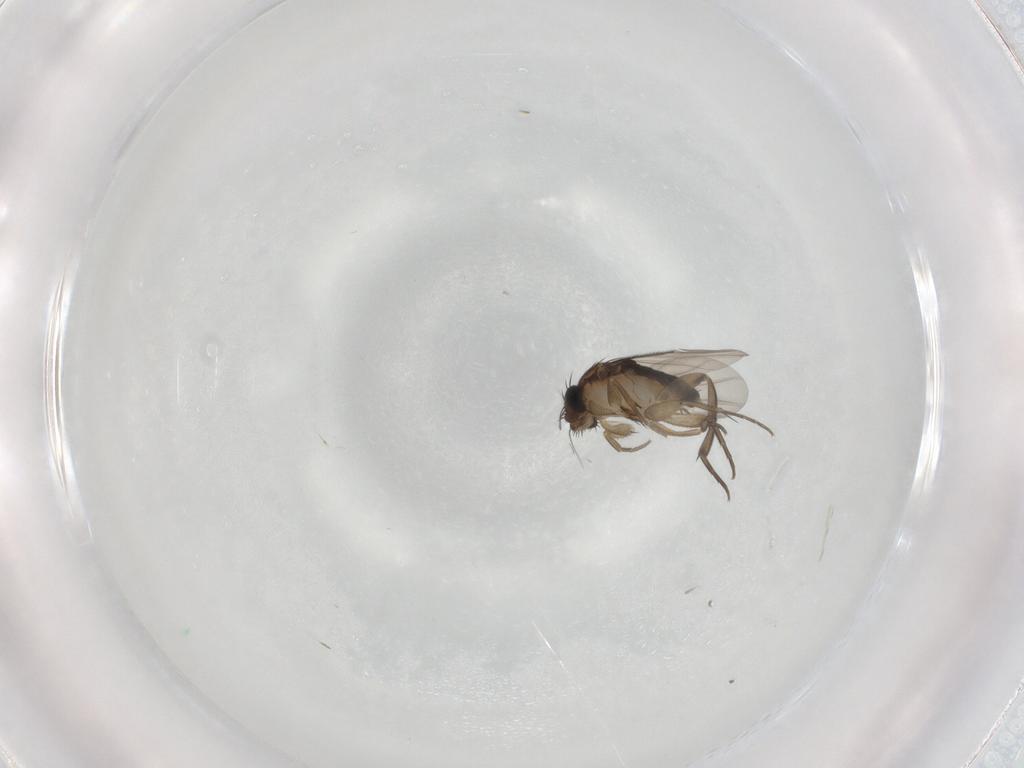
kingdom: Animalia
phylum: Arthropoda
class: Insecta
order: Diptera
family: Phoridae
